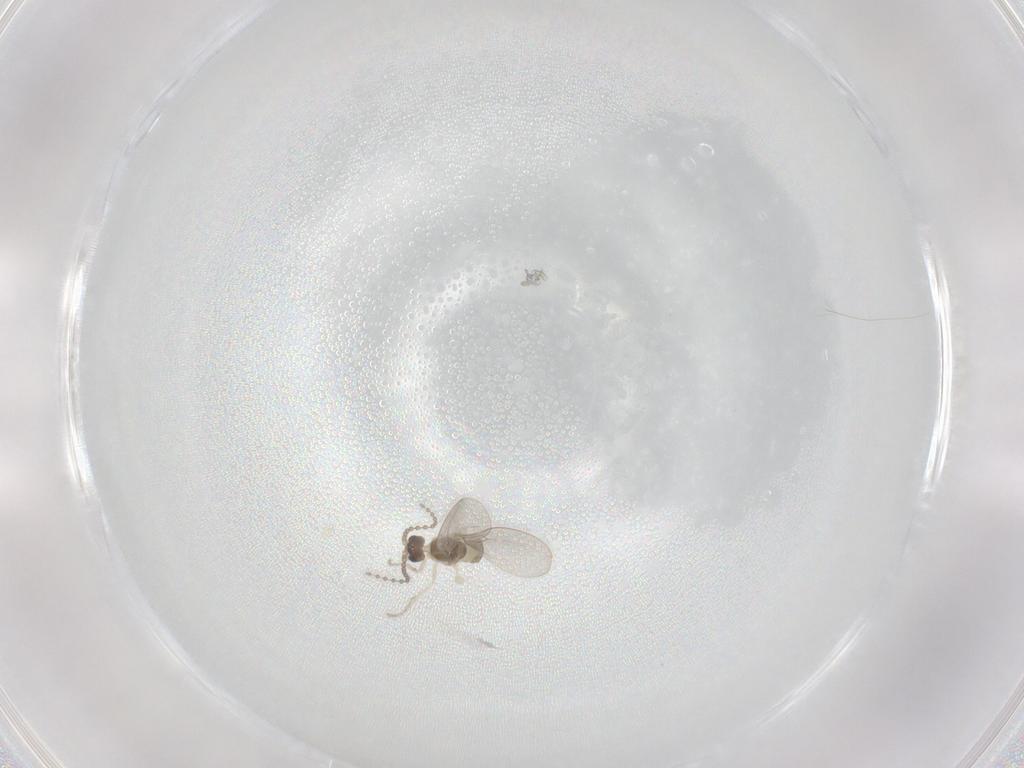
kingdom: Animalia
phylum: Arthropoda
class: Insecta
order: Diptera
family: Cecidomyiidae
